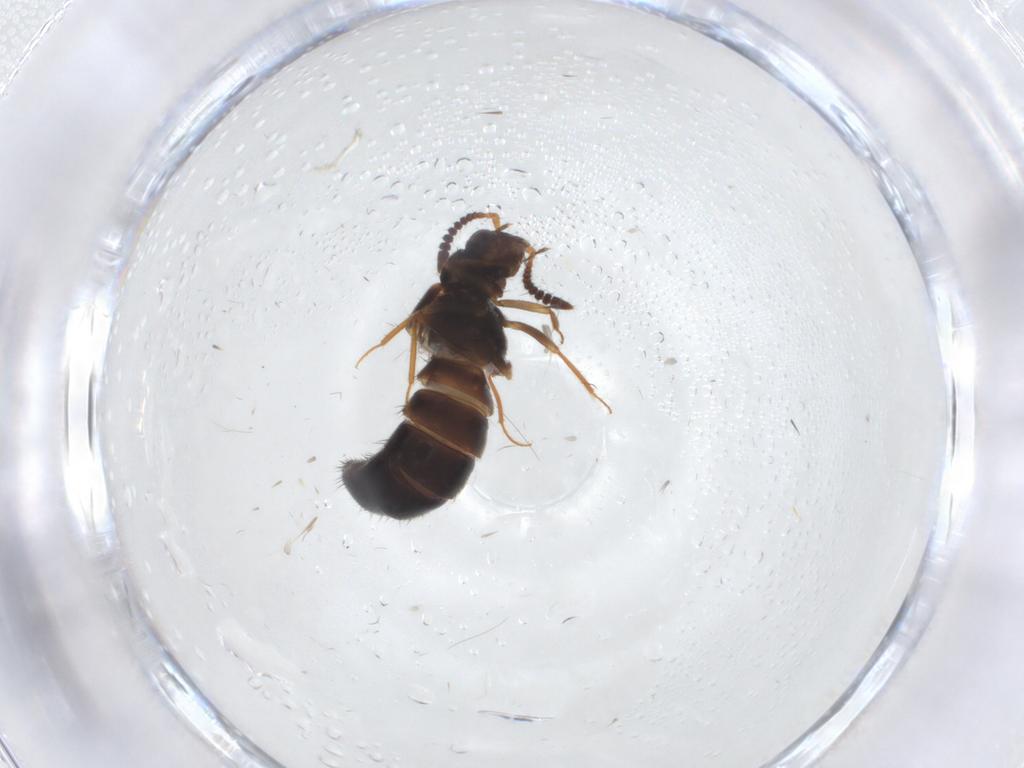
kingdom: Animalia
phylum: Arthropoda
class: Insecta
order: Coleoptera
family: Staphylinidae
